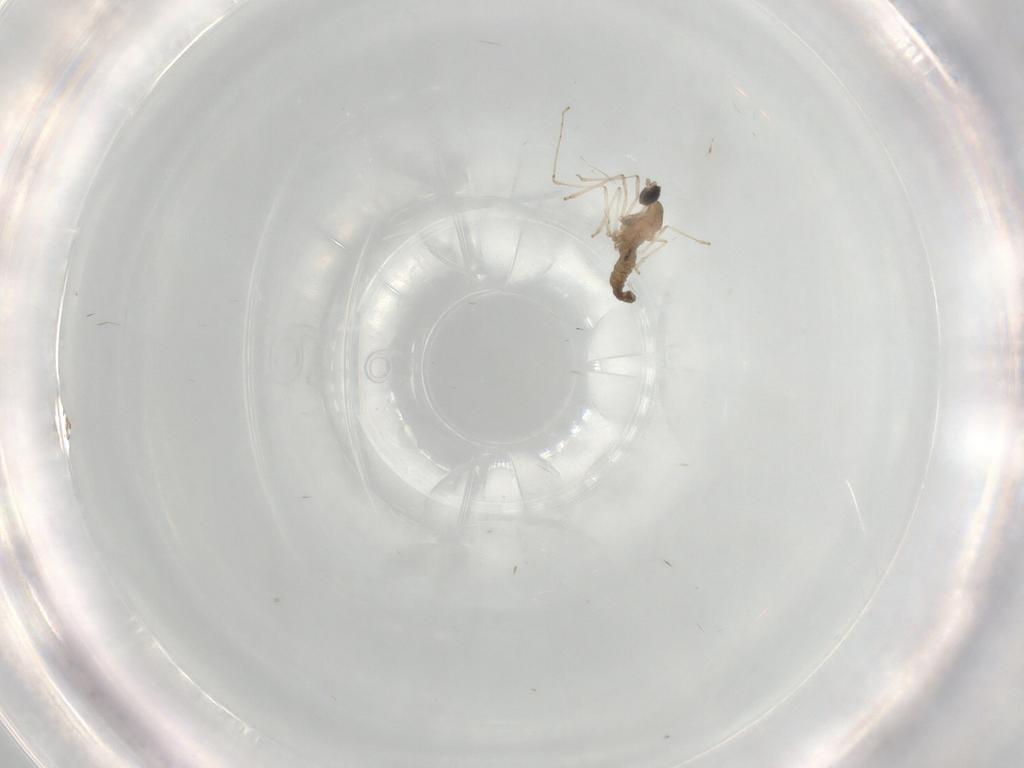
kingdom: Animalia
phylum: Arthropoda
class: Insecta
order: Diptera
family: Cecidomyiidae
